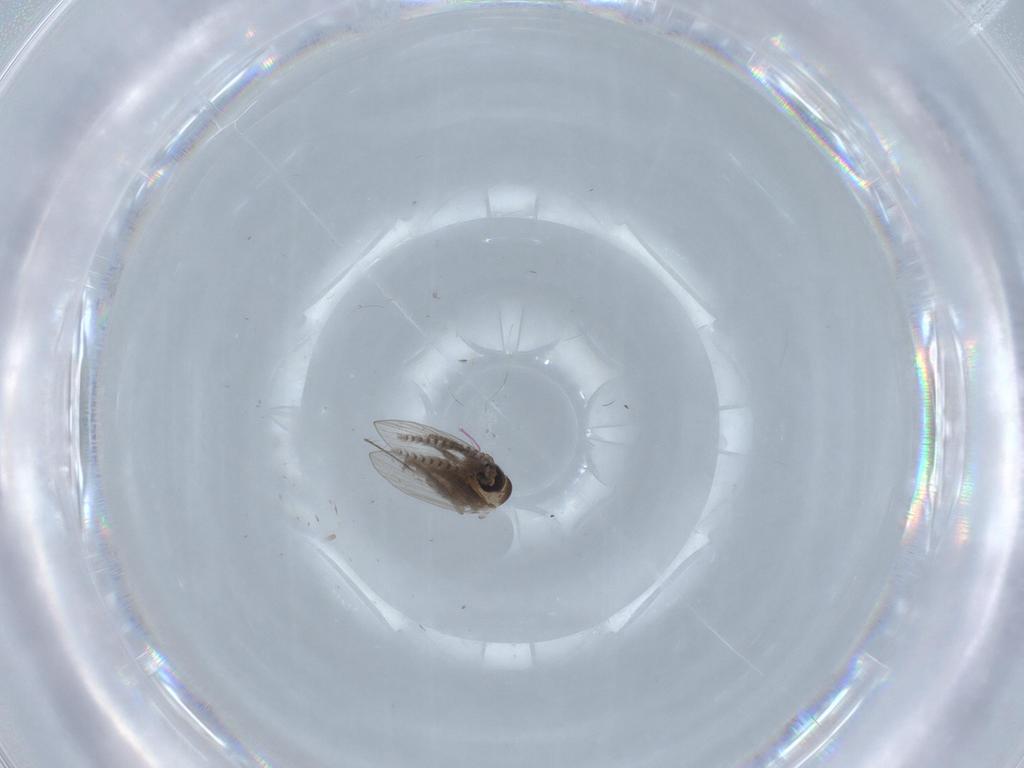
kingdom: Animalia
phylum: Arthropoda
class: Insecta
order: Diptera
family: Psychodidae
